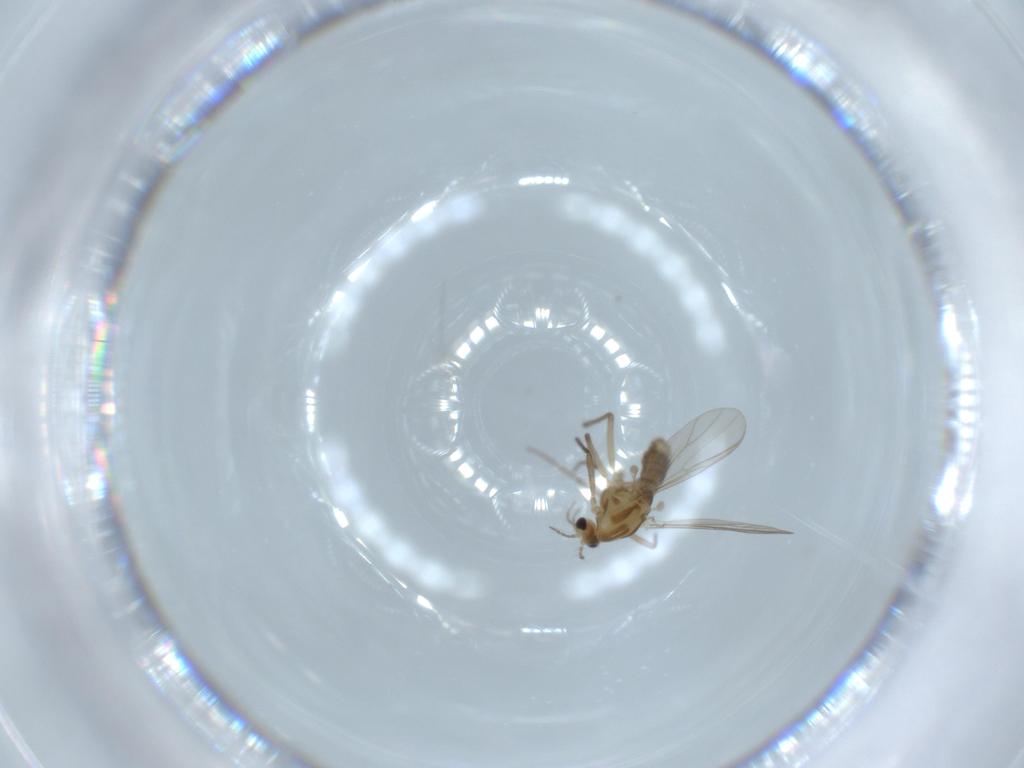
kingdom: Animalia
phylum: Arthropoda
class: Insecta
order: Diptera
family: Chironomidae
